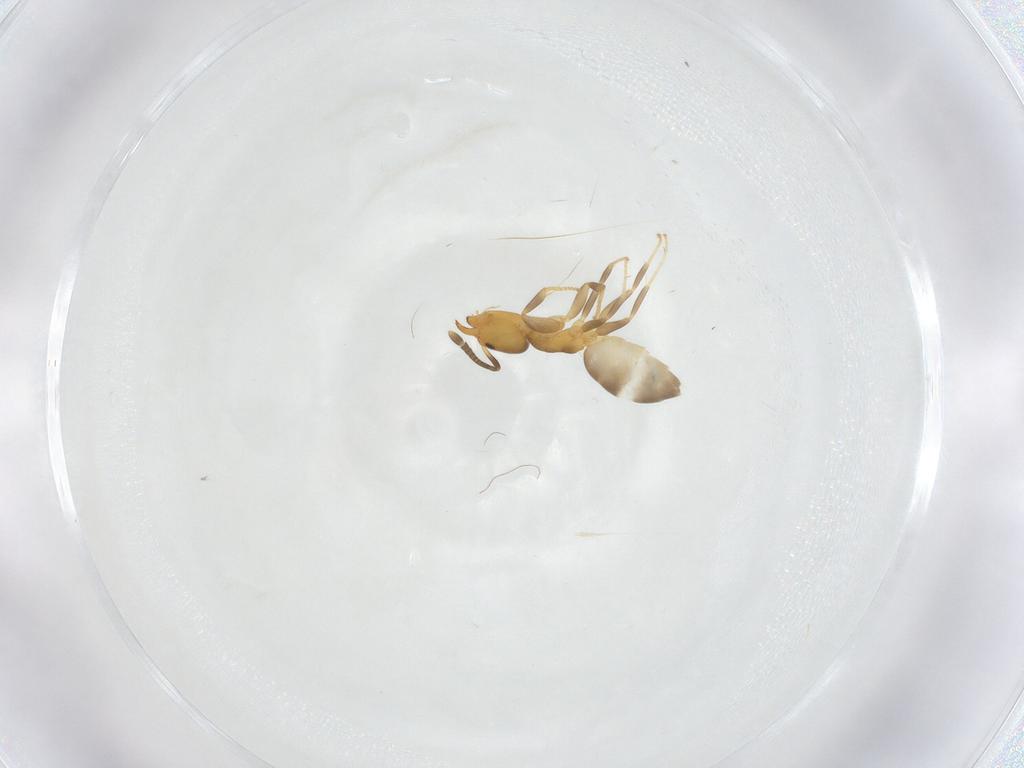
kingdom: Animalia
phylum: Arthropoda
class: Insecta
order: Hymenoptera
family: Formicidae
